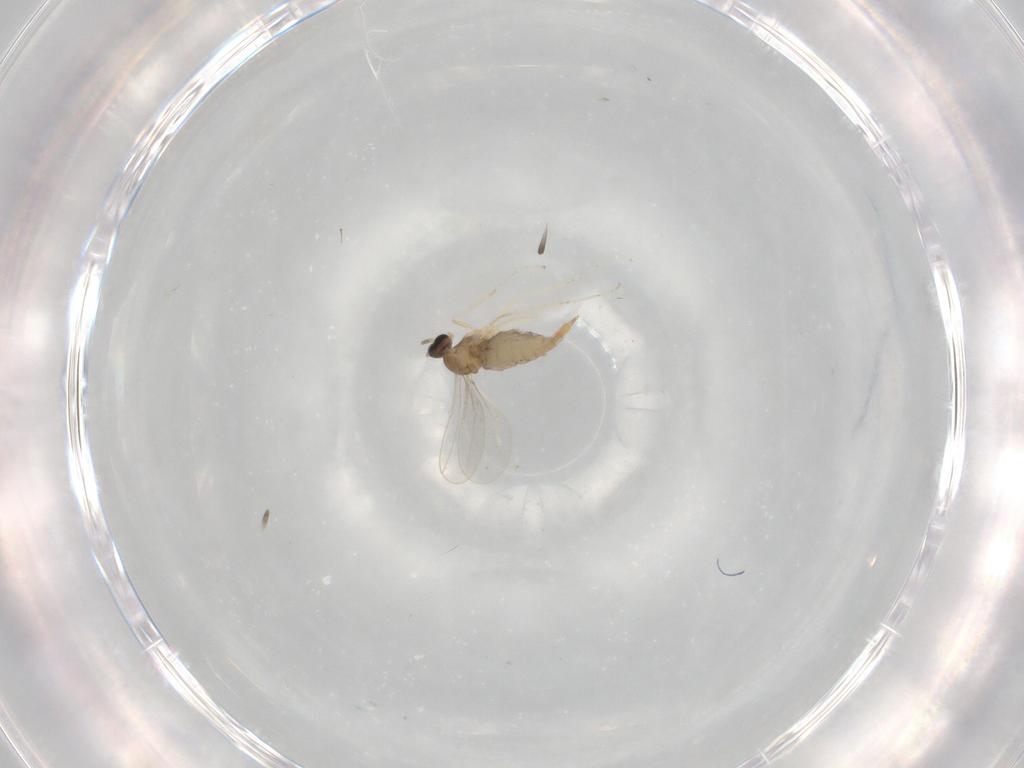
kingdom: Animalia
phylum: Arthropoda
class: Insecta
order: Diptera
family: Cecidomyiidae
